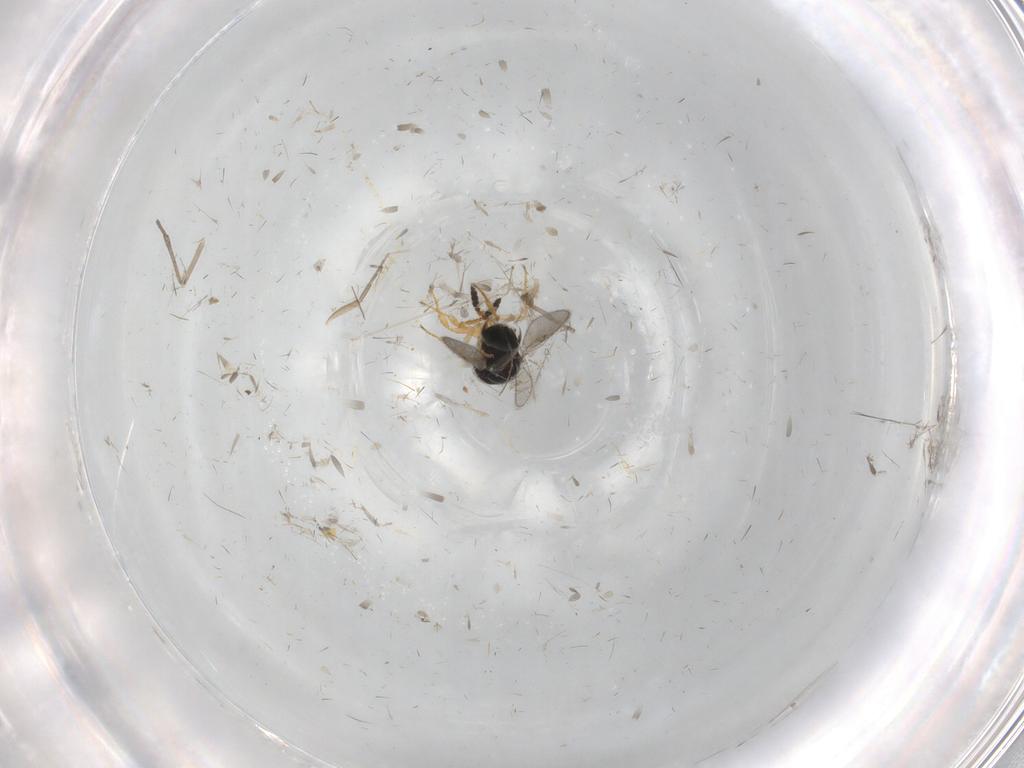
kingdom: Animalia
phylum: Arthropoda
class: Insecta
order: Hymenoptera
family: Scelionidae
